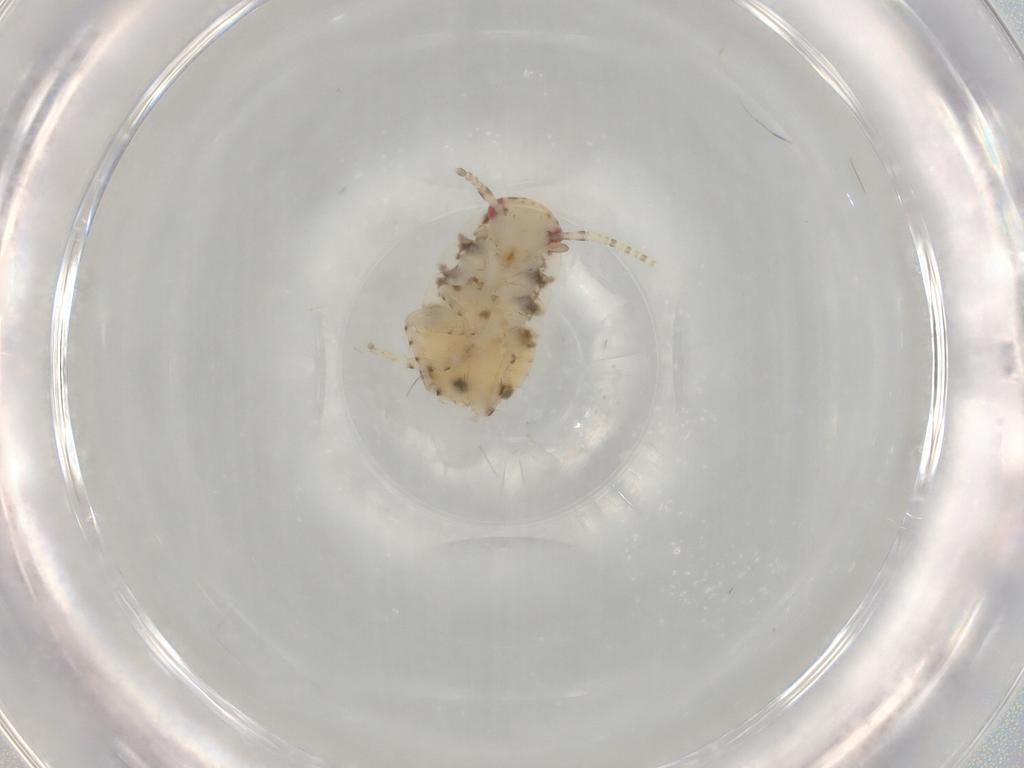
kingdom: Animalia
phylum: Arthropoda
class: Insecta
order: Blattodea
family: Ectobiidae
